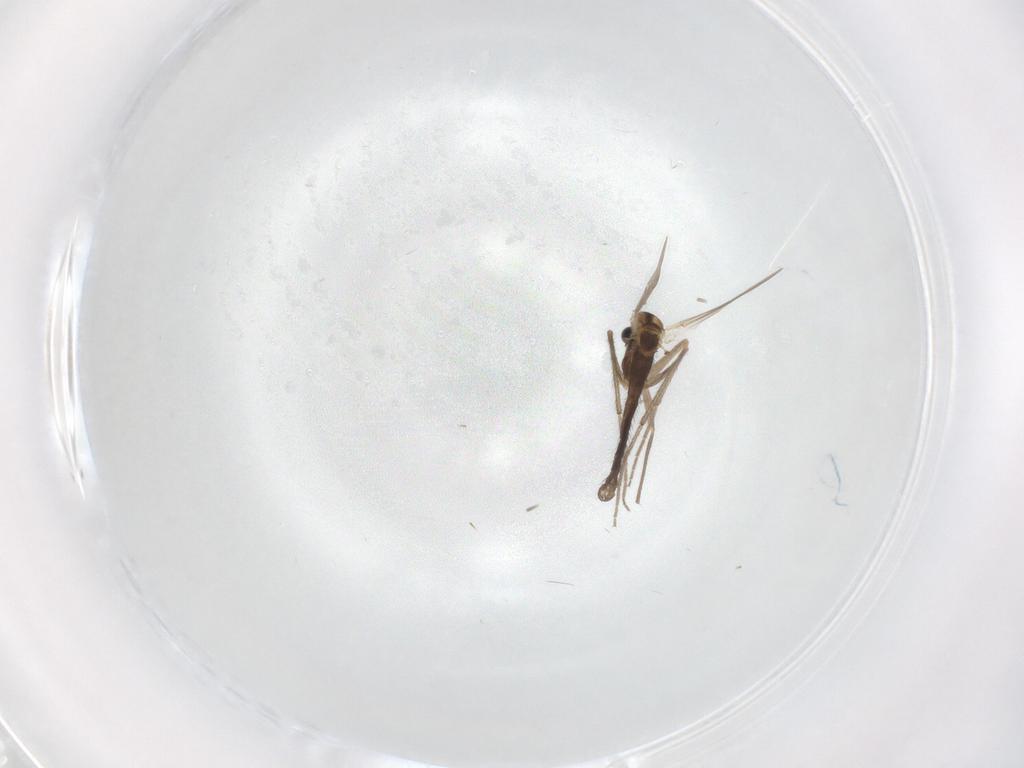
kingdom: Animalia
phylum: Arthropoda
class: Insecta
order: Diptera
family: Chironomidae
